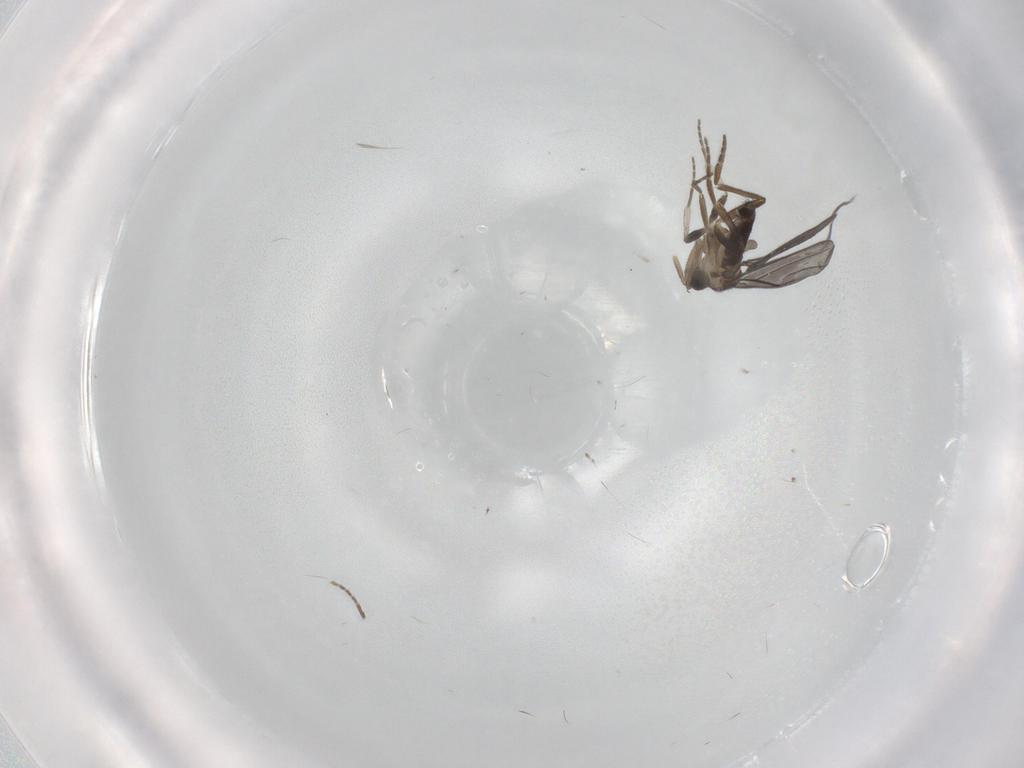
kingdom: Animalia
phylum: Arthropoda
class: Insecta
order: Diptera
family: Phoridae
